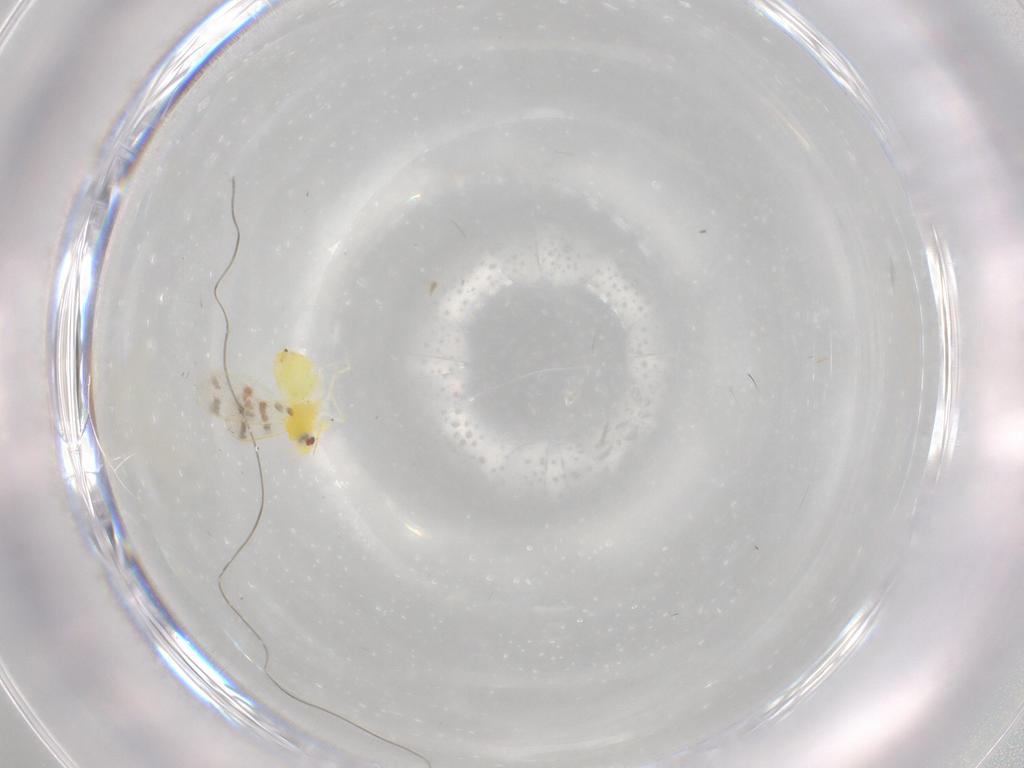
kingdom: Animalia
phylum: Arthropoda
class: Insecta
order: Hemiptera
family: Aleyrodidae
